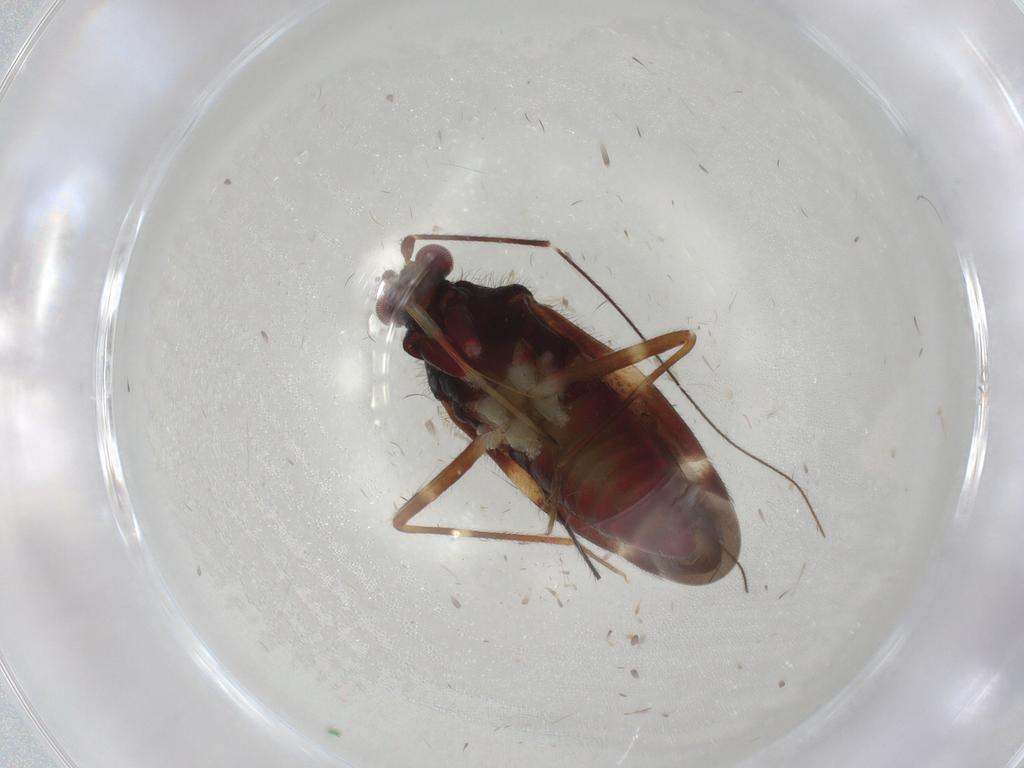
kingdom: Animalia
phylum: Arthropoda
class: Insecta
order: Hemiptera
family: Miridae
